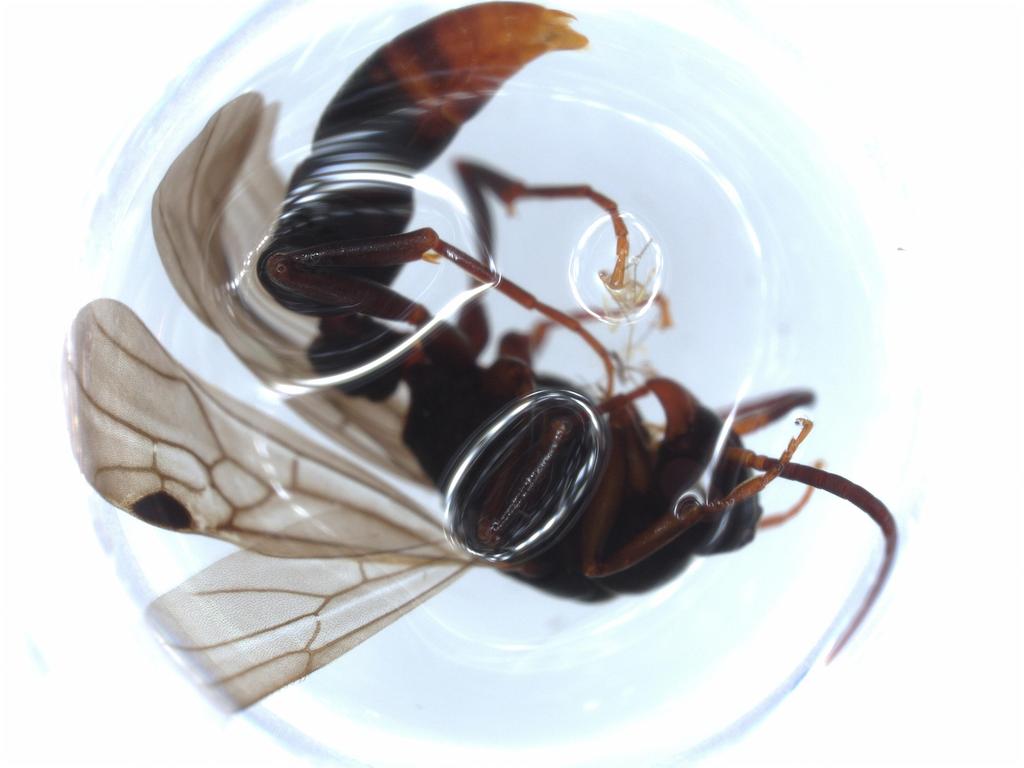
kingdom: Animalia
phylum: Arthropoda
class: Insecta
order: Hymenoptera
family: Formicidae
